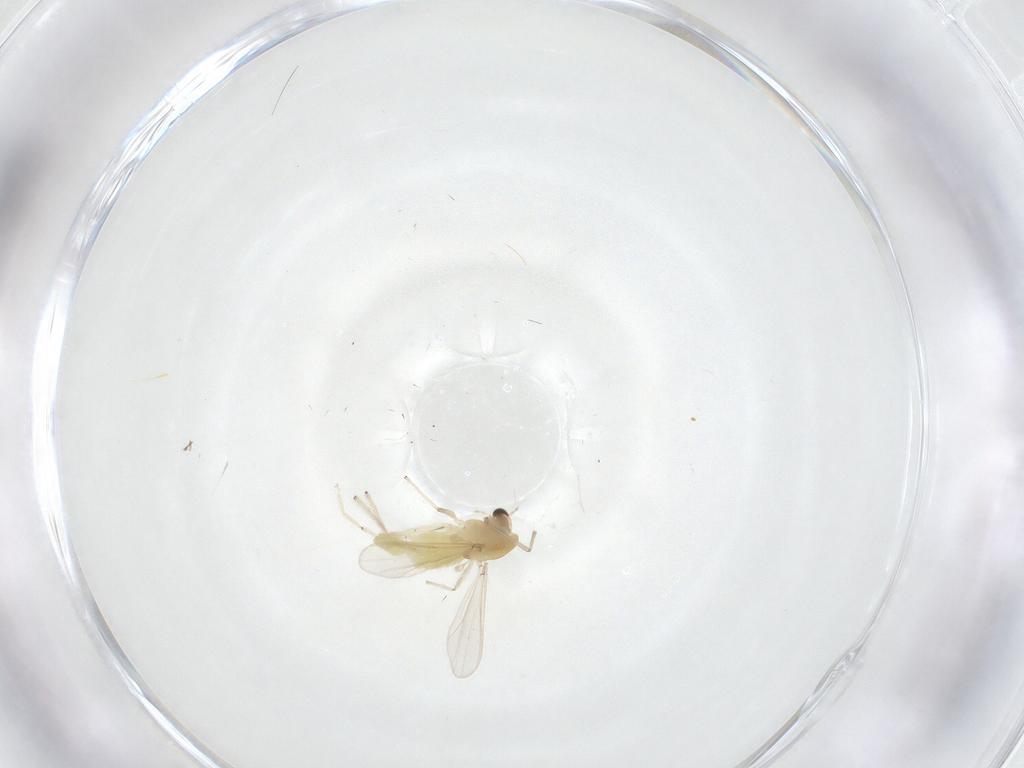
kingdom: Animalia
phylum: Arthropoda
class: Insecta
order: Diptera
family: Chironomidae
